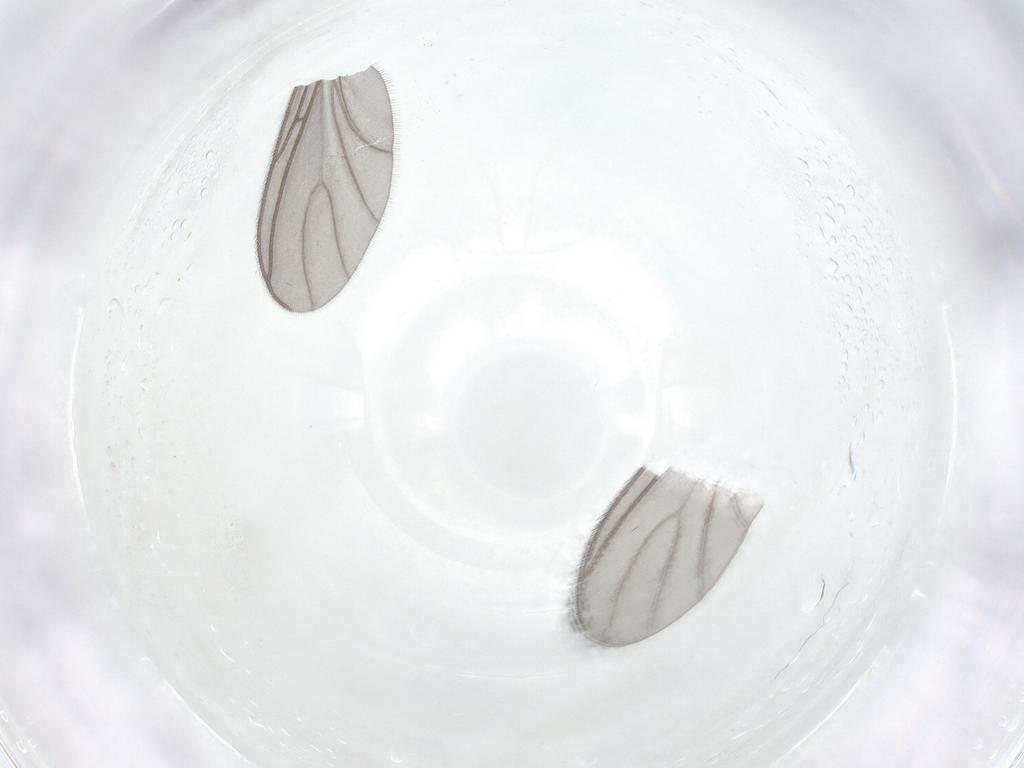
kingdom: Animalia
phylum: Arthropoda
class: Insecta
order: Diptera
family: Sciaridae
